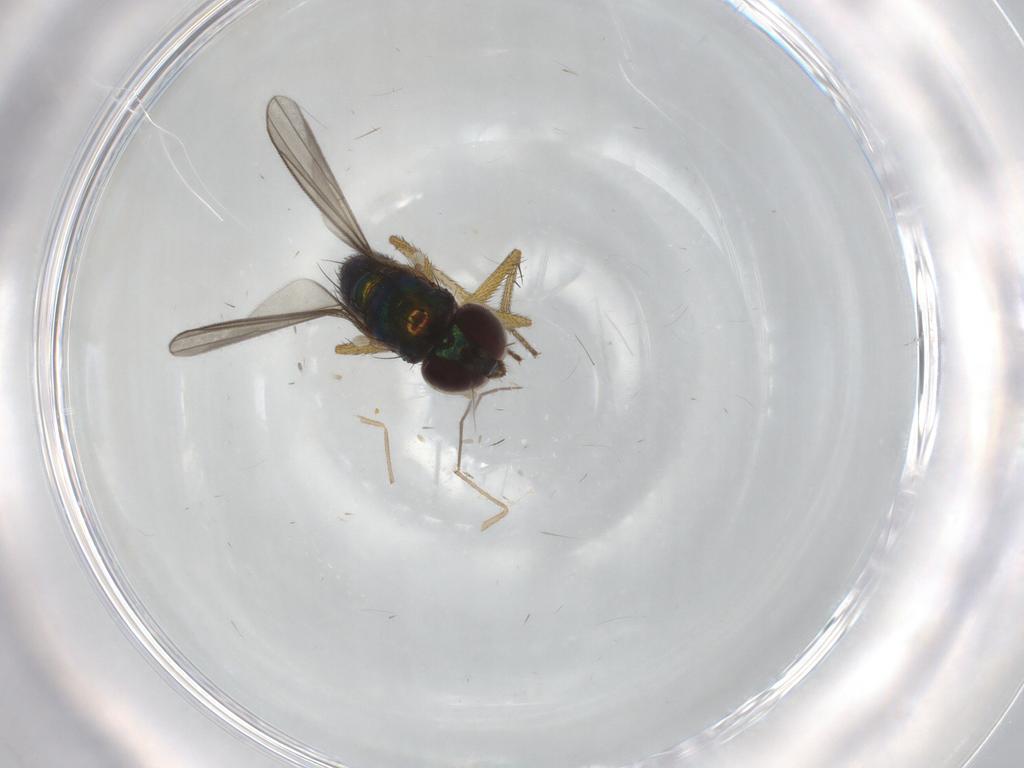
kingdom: Animalia
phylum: Arthropoda
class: Insecta
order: Diptera
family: Dolichopodidae
